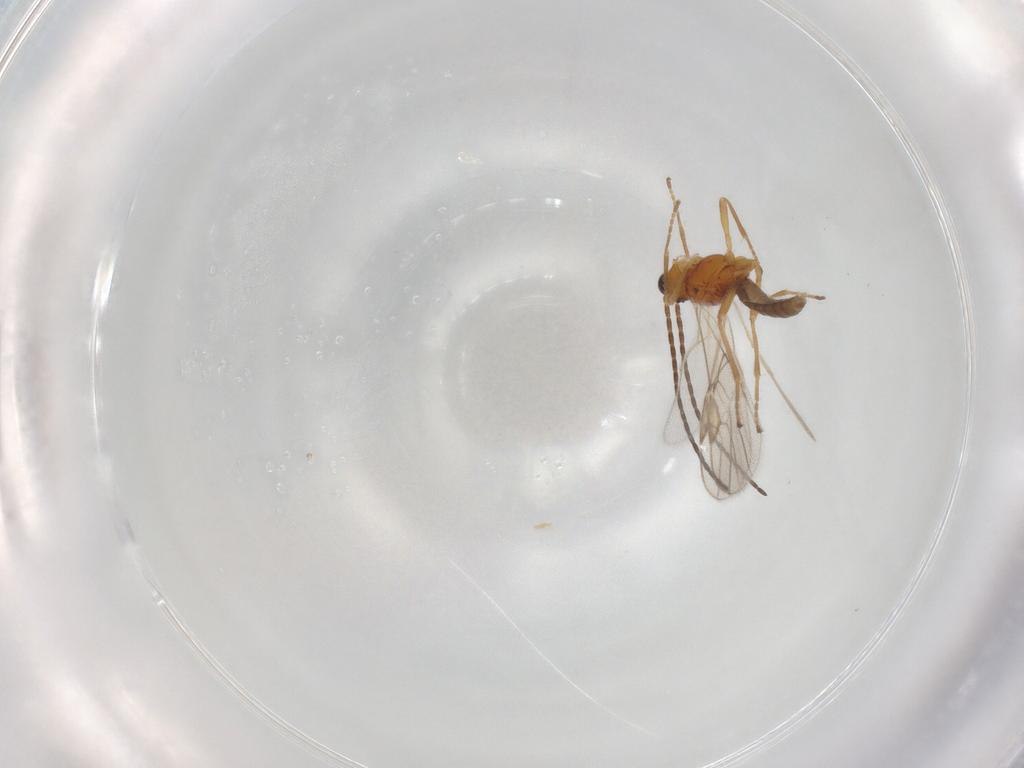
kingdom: Animalia
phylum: Arthropoda
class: Insecta
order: Hymenoptera
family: Braconidae
